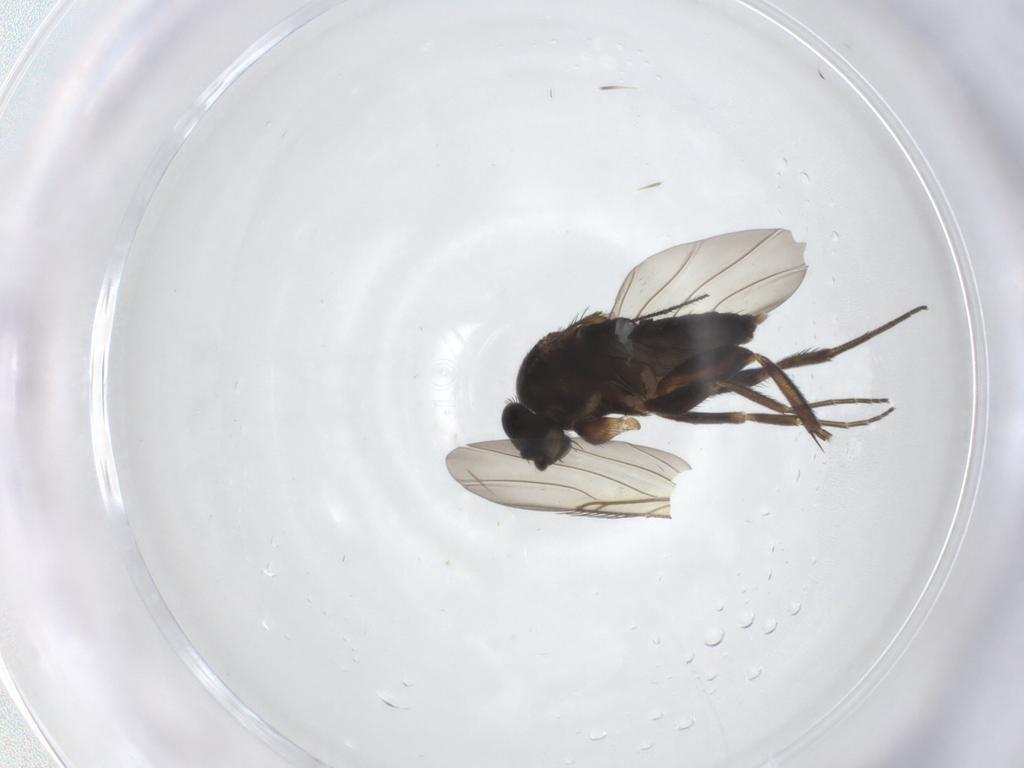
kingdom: Animalia
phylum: Arthropoda
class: Insecta
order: Diptera
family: Phoridae
